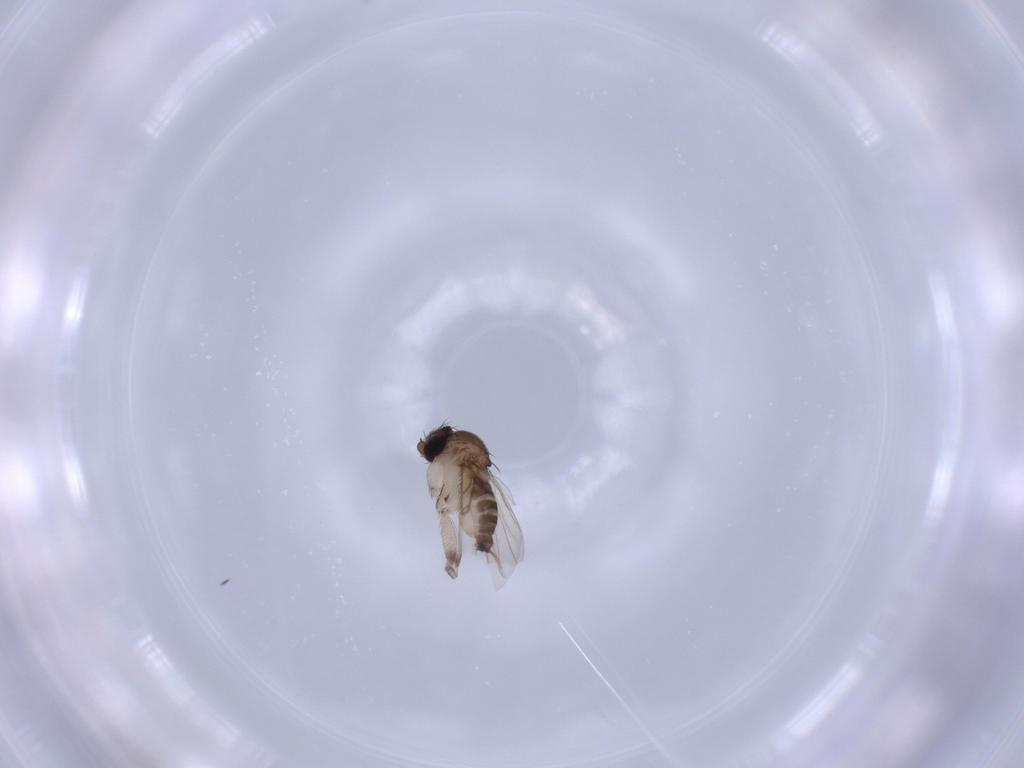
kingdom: Animalia
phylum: Arthropoda
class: Insecta
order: Diptera
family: Phoridae
